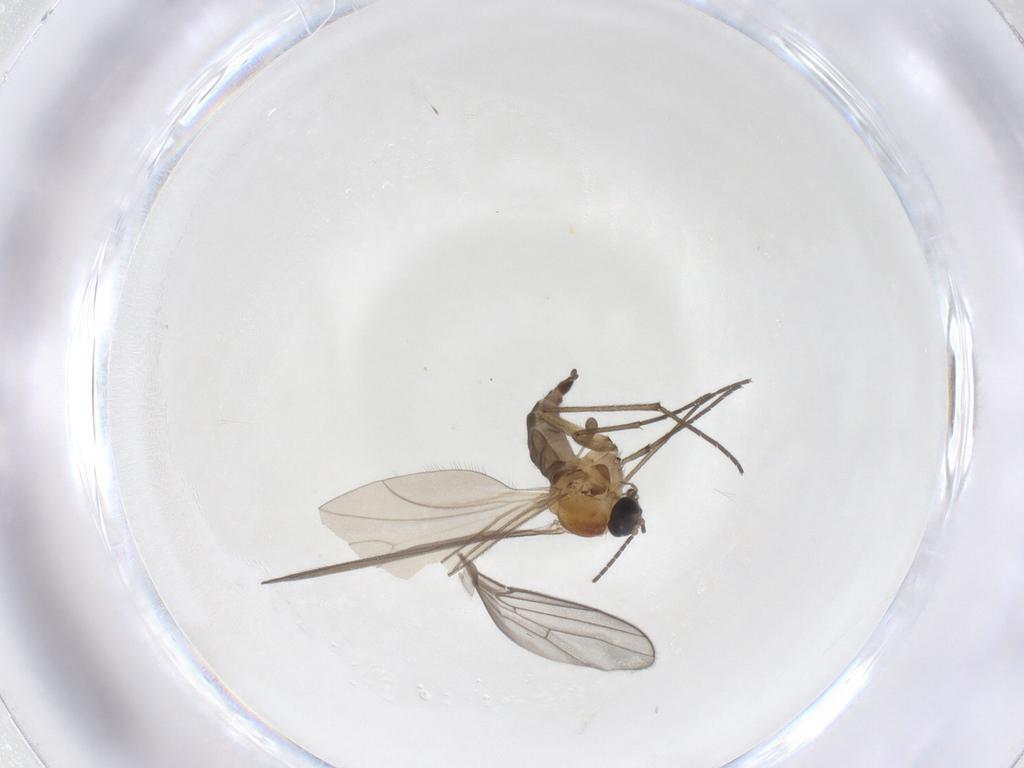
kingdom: Animalia
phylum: Arthropoda
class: Insecta
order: Diptera
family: Sciaridae
